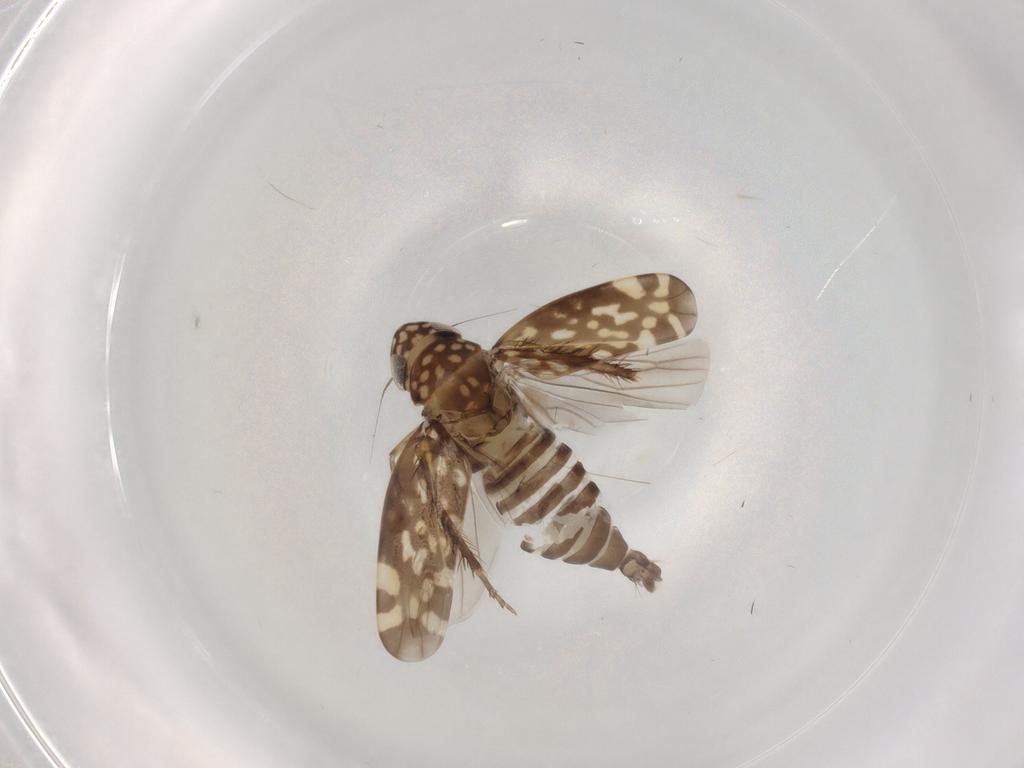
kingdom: Animalia
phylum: Arthropoda
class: Insecta
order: Hemiptera
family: Cicadellidae
